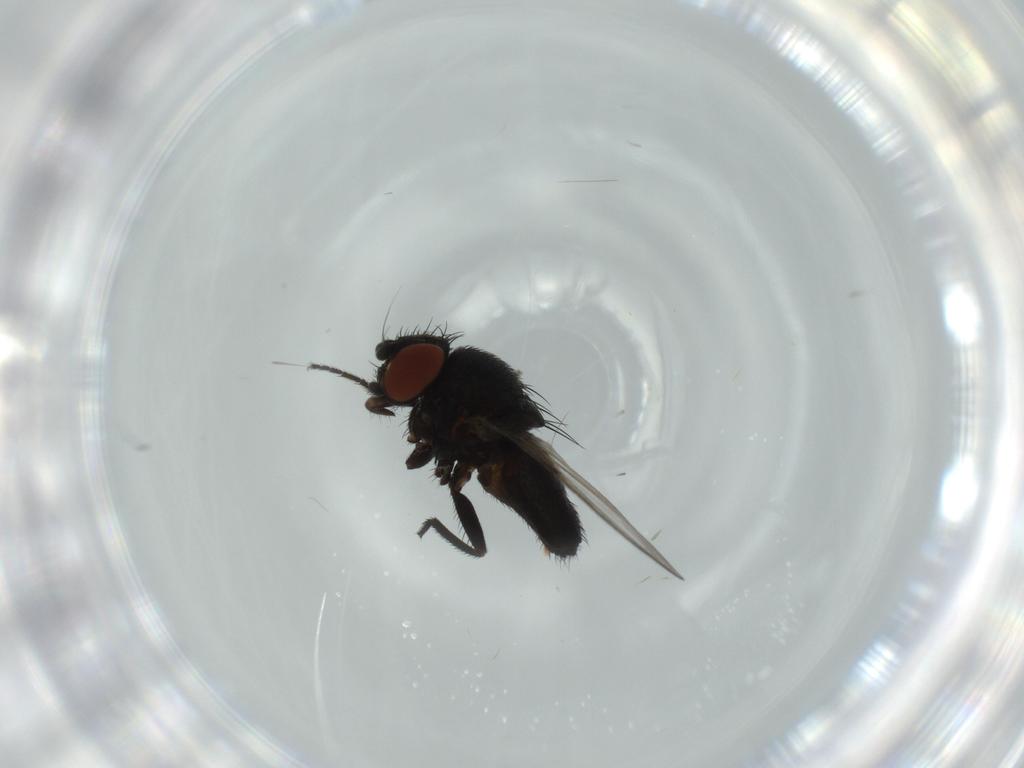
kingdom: Animalia
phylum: Arthropoda
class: Insecta
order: Diptera
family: Milichiidae
